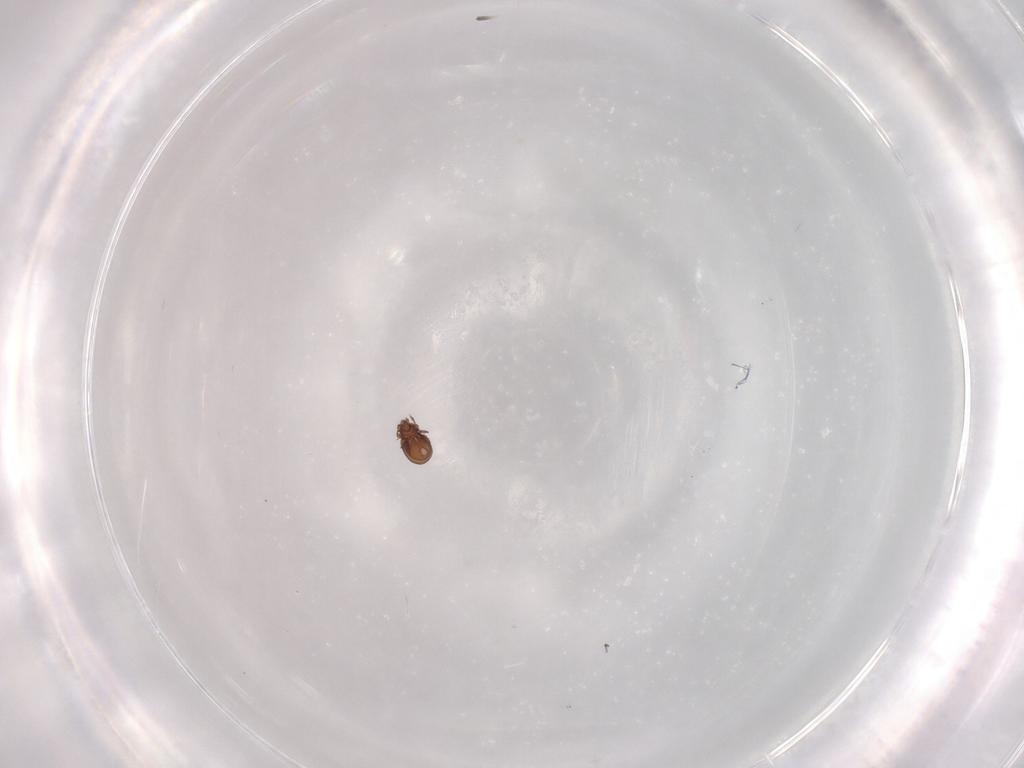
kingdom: Animalia
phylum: Arthropoda
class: Arachnida
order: Sarcoptiformes
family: Tectocepheidae
